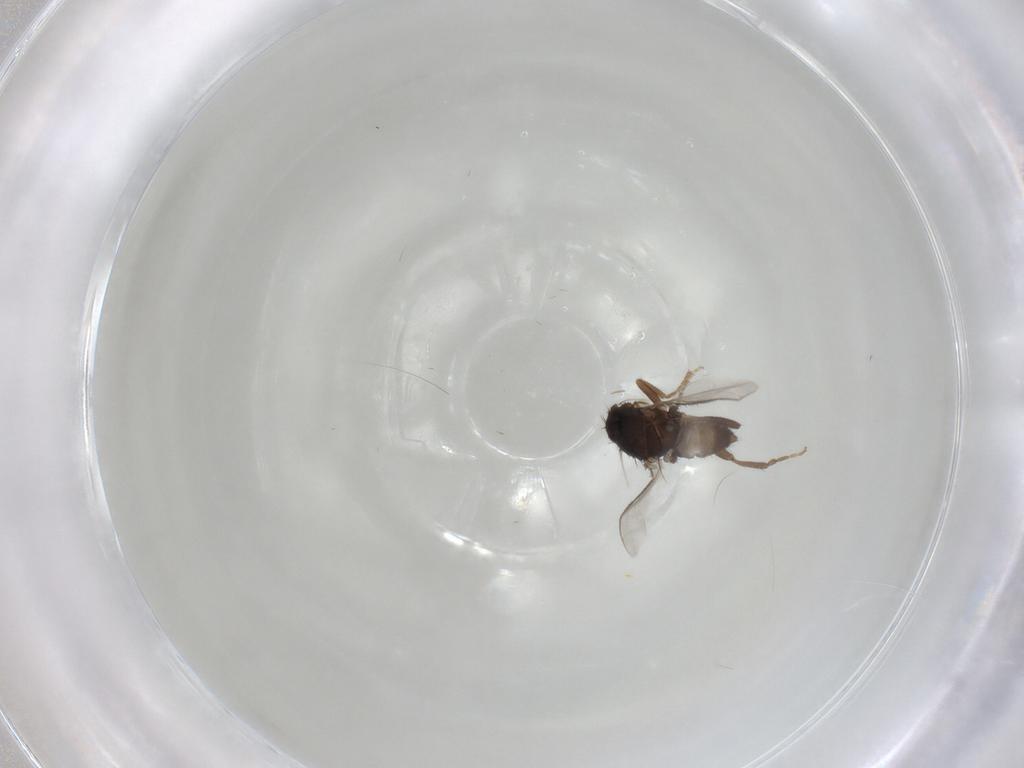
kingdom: Animalia
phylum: Arthropoda
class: Insecta
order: Diptera
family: Sphaeroceridae
